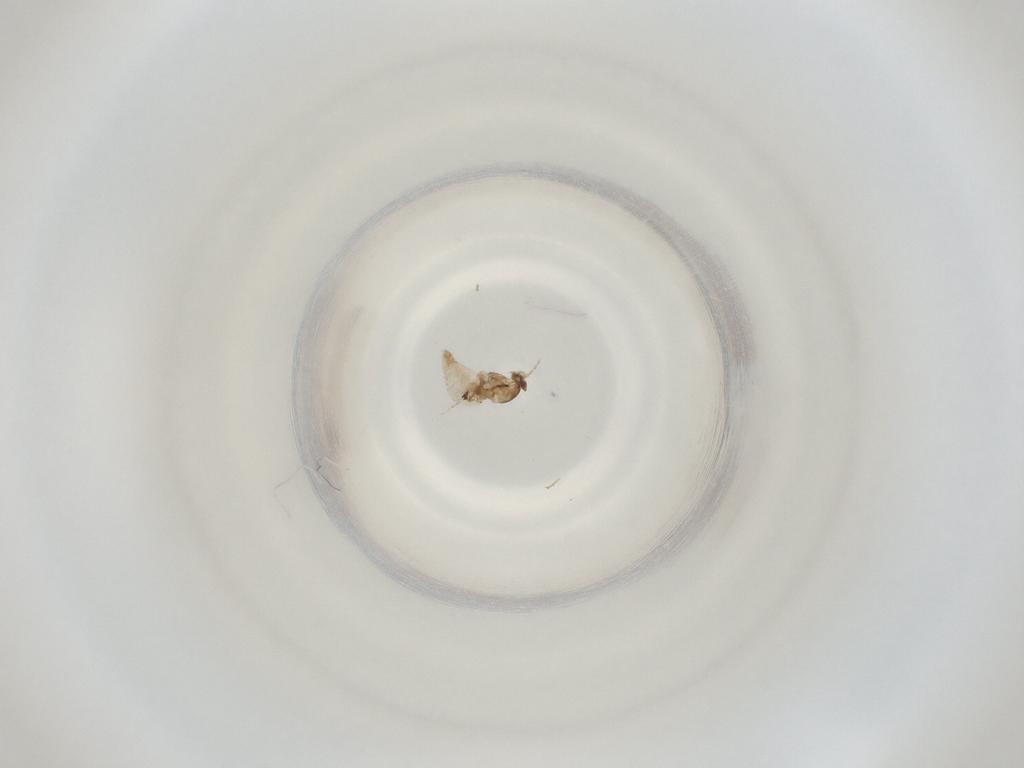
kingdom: Animalia
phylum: Arthropoda
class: Insecta
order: Diptera
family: Cecidomyiidae
